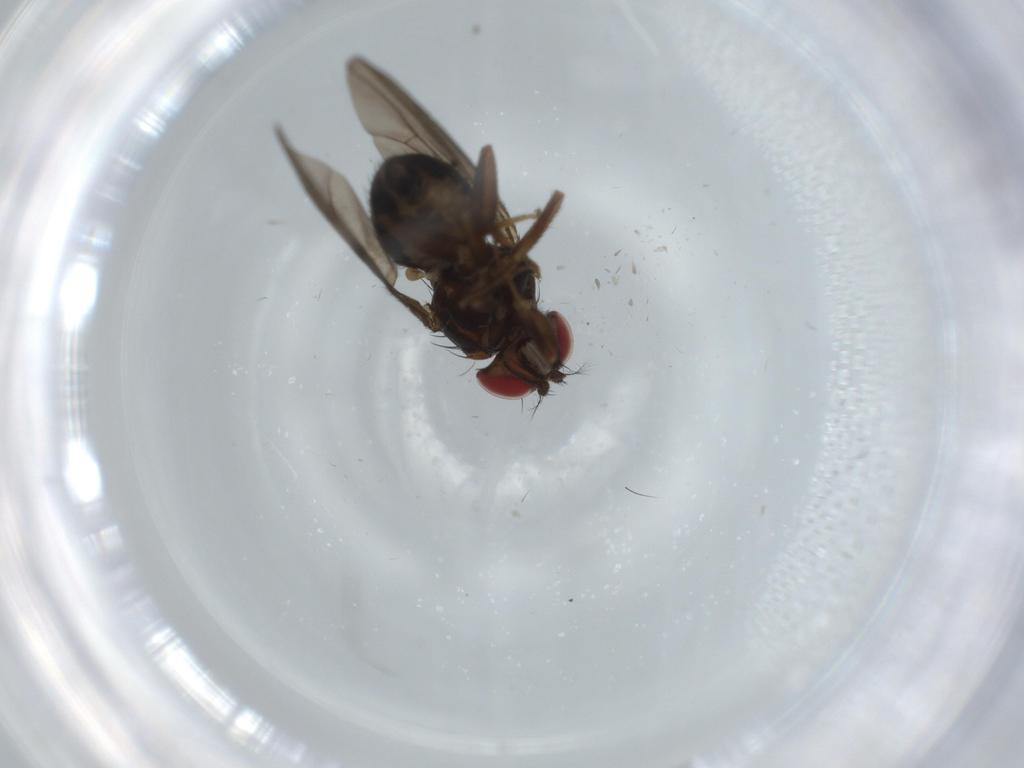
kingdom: Animalia
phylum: Arthropoda
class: Insecta
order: Diptera
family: Drosophilidae
